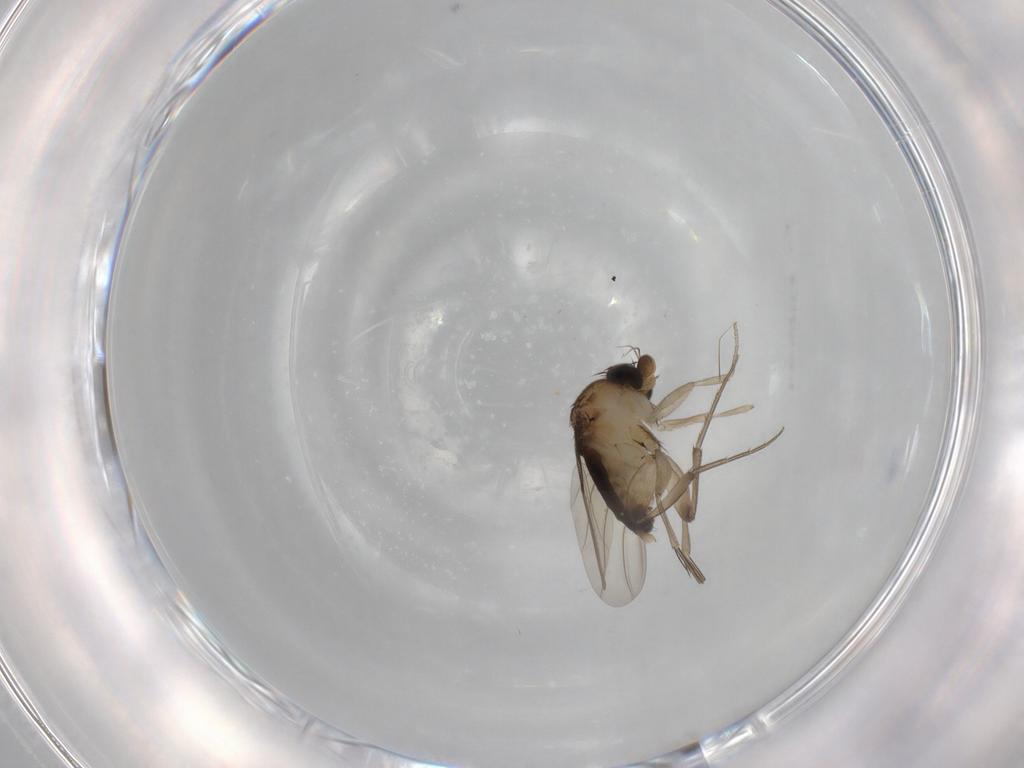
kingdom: Animalia
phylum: Arthropoda
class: Insecta
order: Diptera
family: Phoridae
